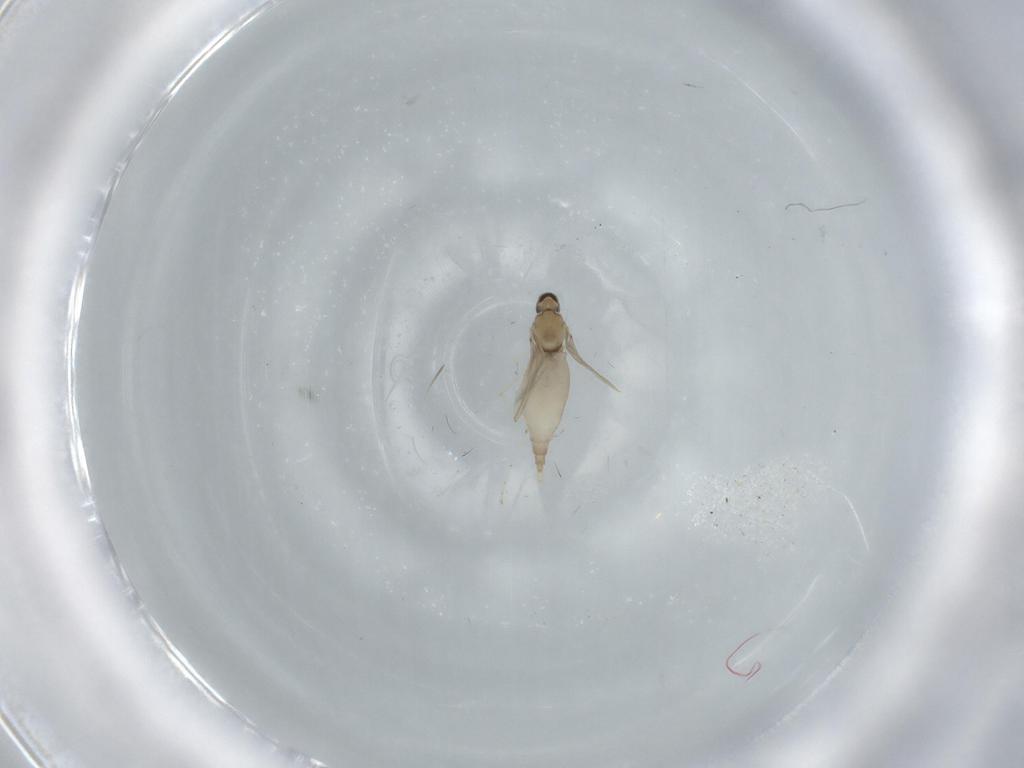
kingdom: Animalia
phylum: Arthropoda
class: Insecta
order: Diptera
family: Cecidomyiidae
